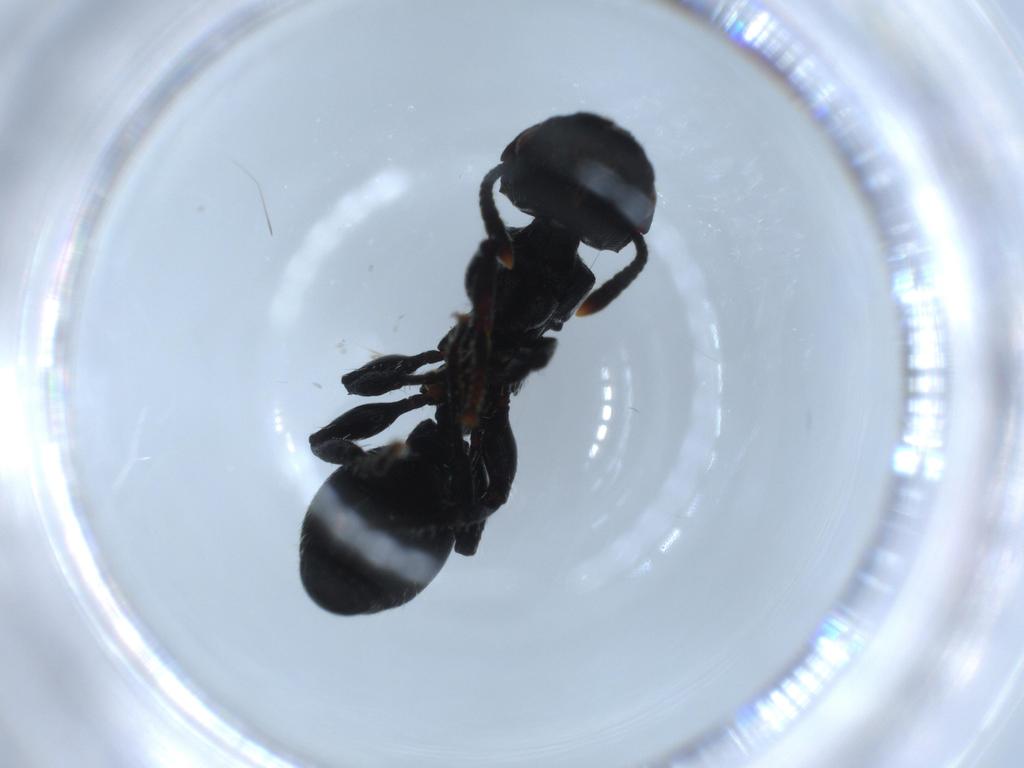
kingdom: Animalia
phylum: Arthropoda
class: Insecta
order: Hymenoptera
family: Formicidae
